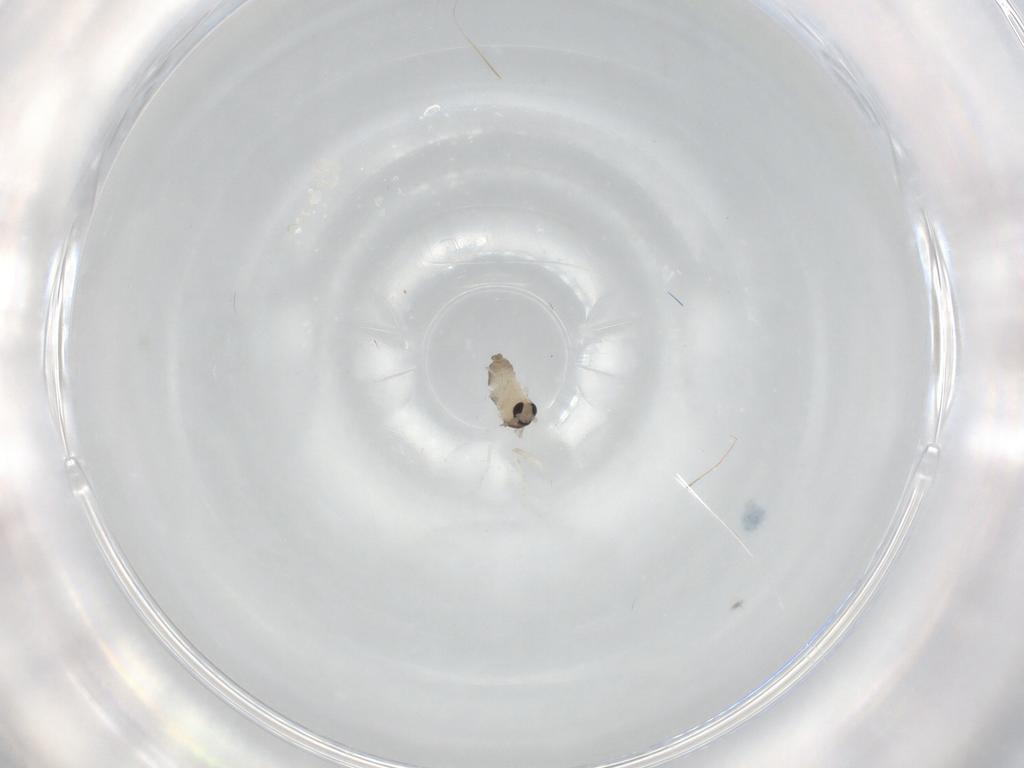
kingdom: Animalia
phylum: Arthropoda
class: Insecta
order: Diptera
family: Cecidomyiidae
